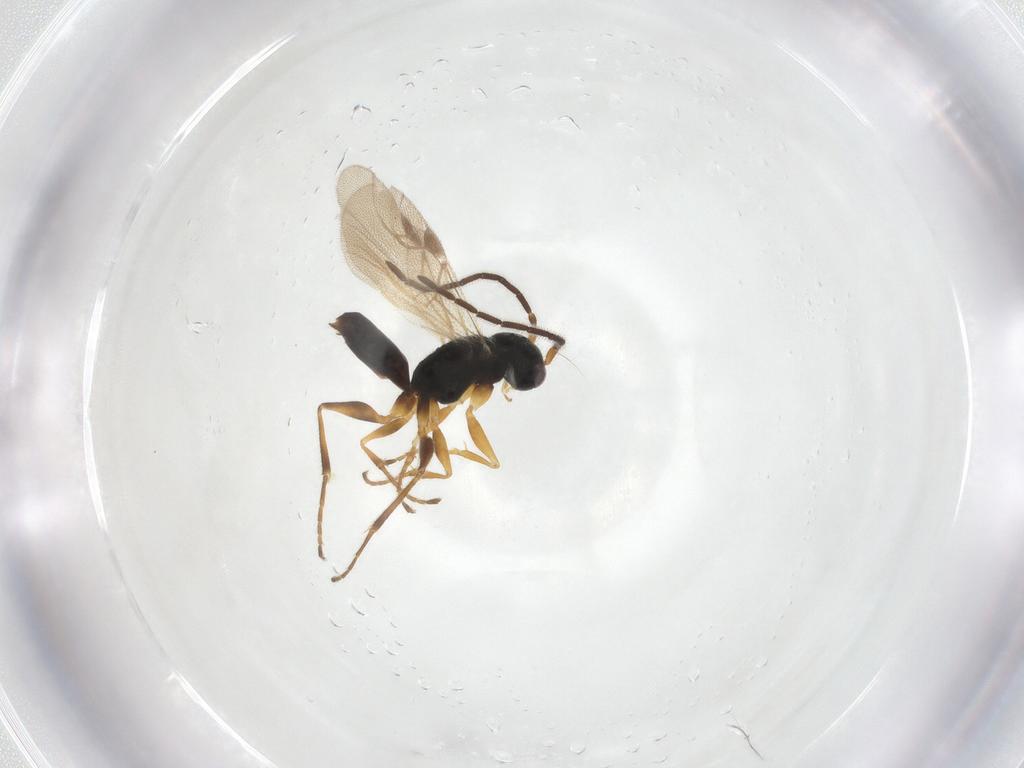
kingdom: Animalia
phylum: Arthropoda
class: Insecta
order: Hymenoptera
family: Dryinidae
